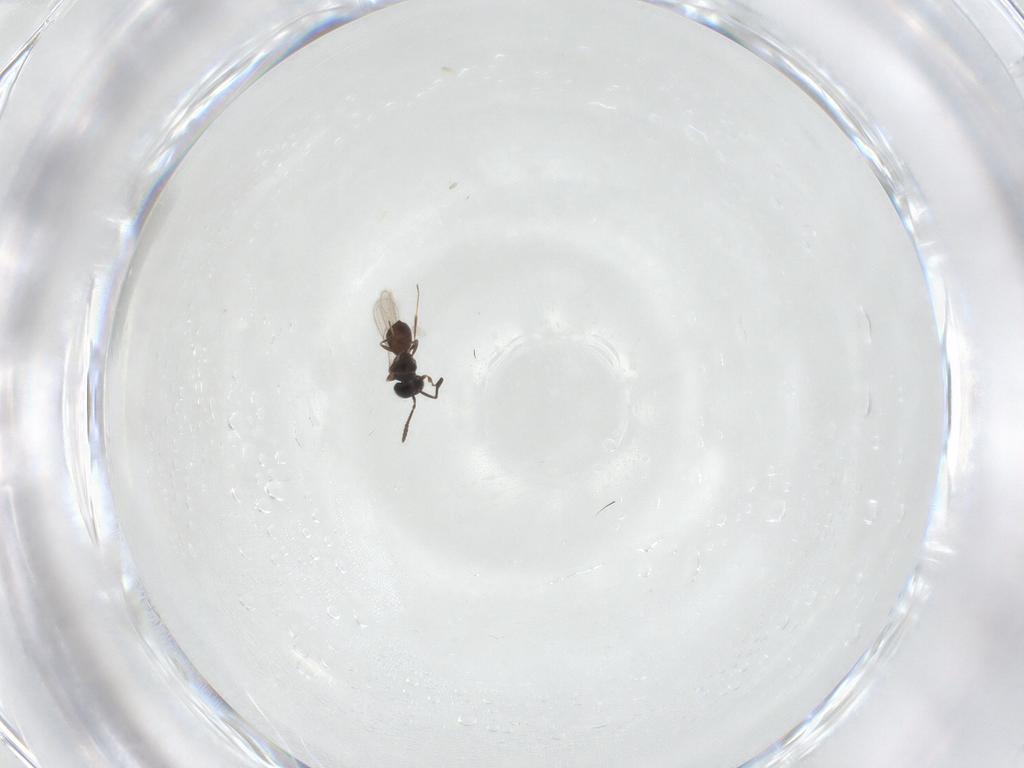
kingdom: Animalia
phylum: Arthropoda
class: Insecta
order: Hymenoptera
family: Scelionidae
